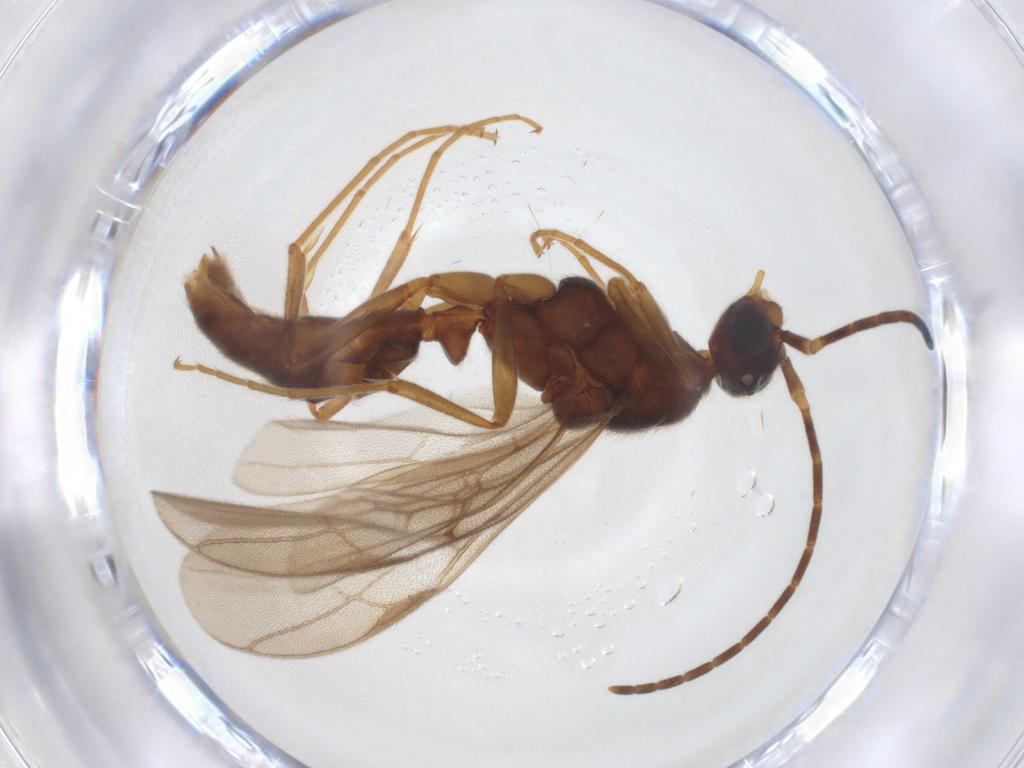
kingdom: Animalia
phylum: Arthropoda
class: Insecta
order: Hymenoptera
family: Formicidae
